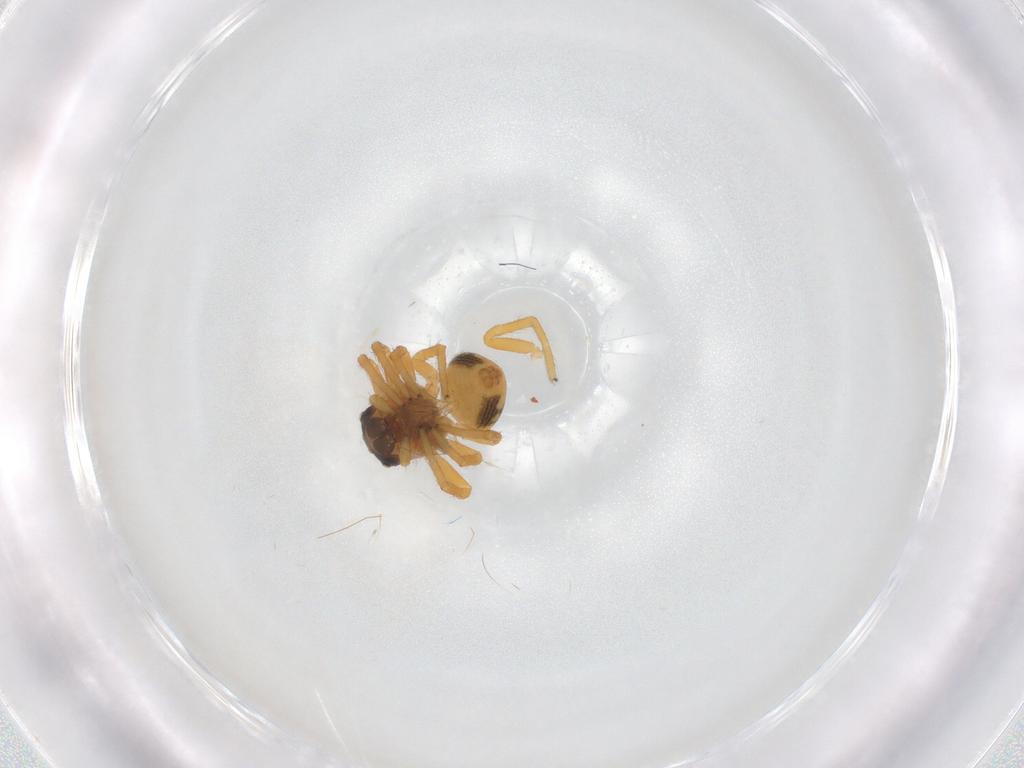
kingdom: Animalia
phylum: Arthropoda
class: Arachnida
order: Araneae
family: Thomisidae
